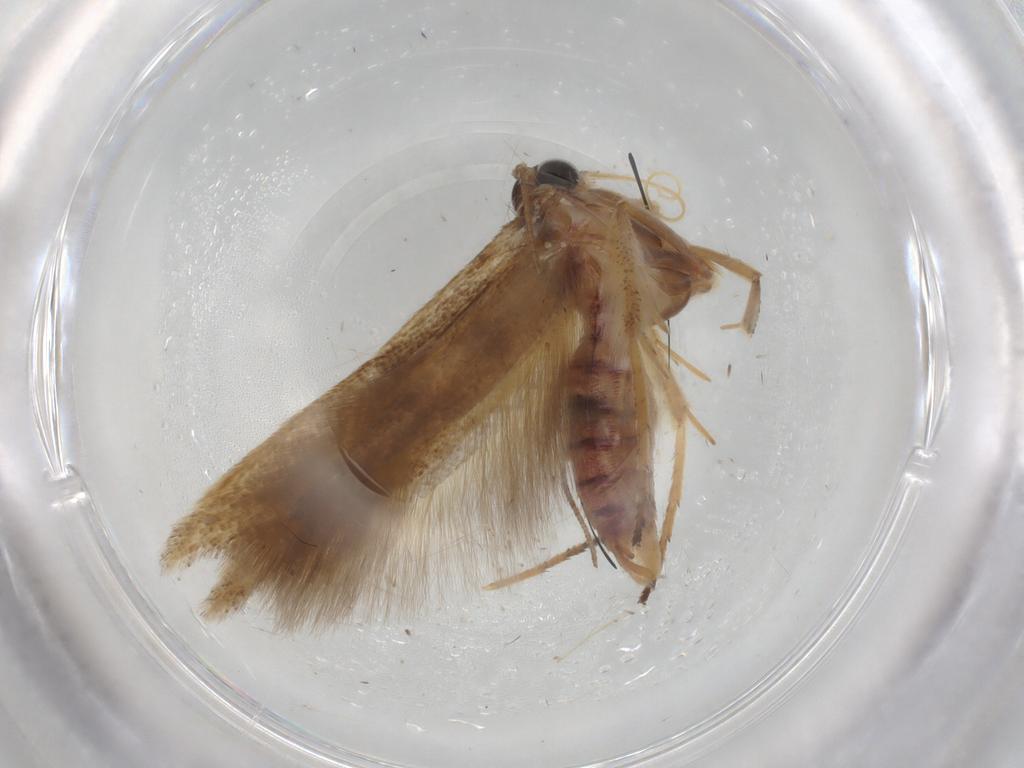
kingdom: Animalia
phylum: Arthropoda
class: Insecta
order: Lepidoptera
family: Scythrididae
